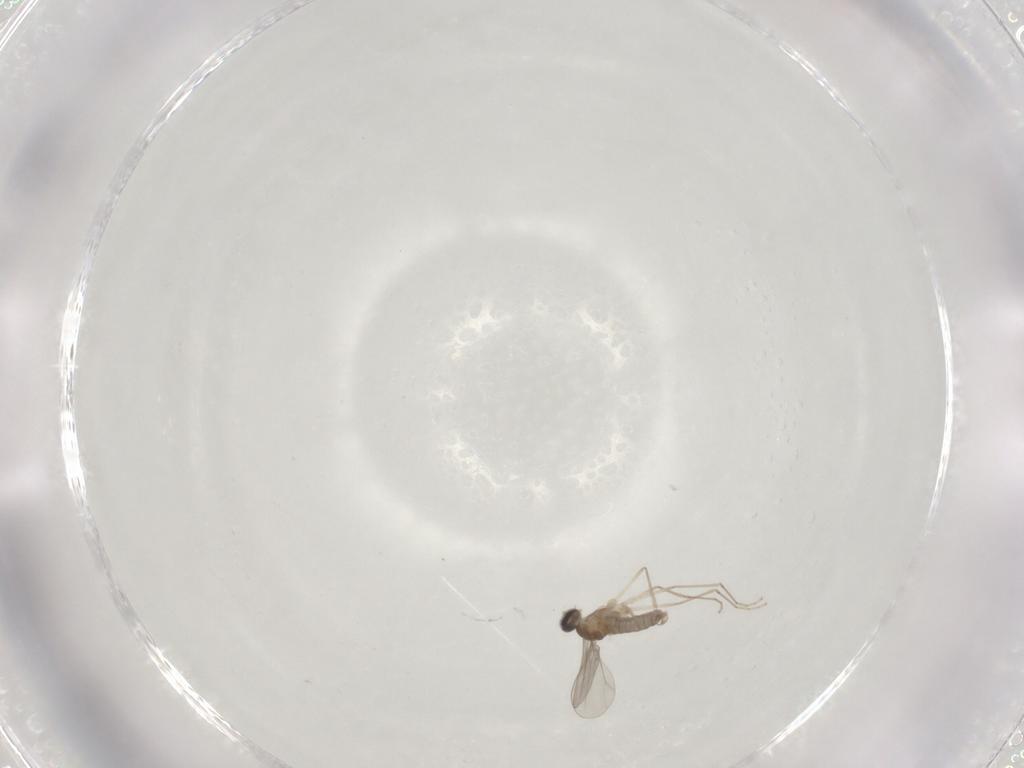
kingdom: Animalia
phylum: Arthropoda
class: Insecta
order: Diptera
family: Cecidomyiidae
